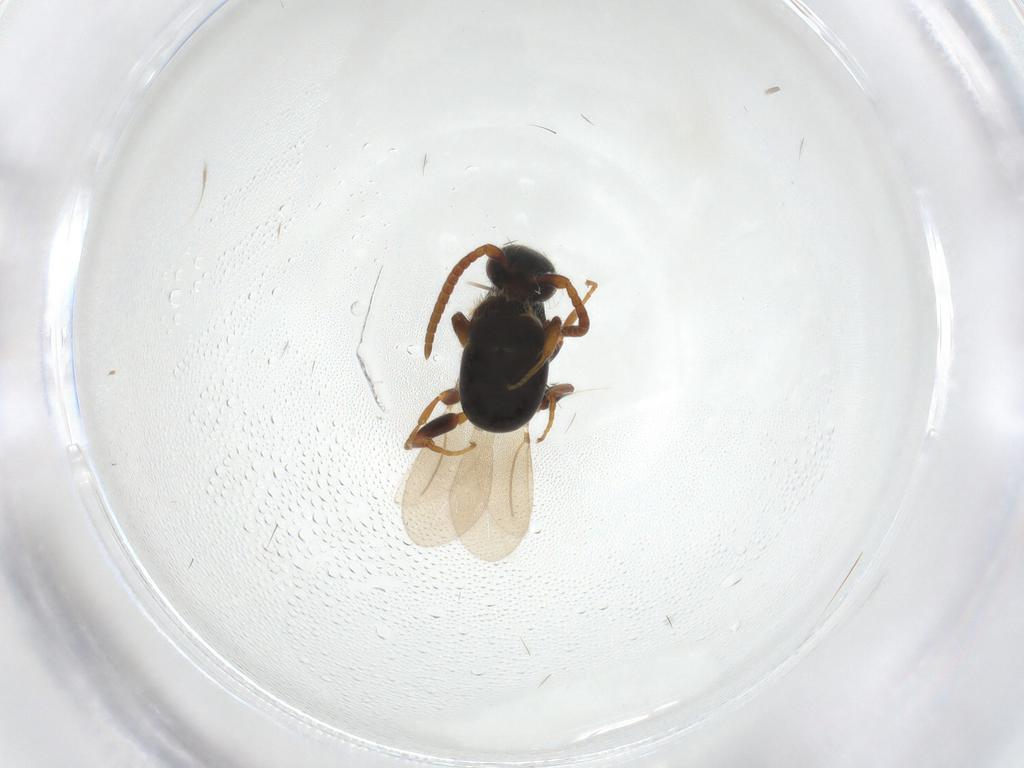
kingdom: Animalia
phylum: Arthropoda
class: Insecta
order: Hymenoptera
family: Bethylidae
